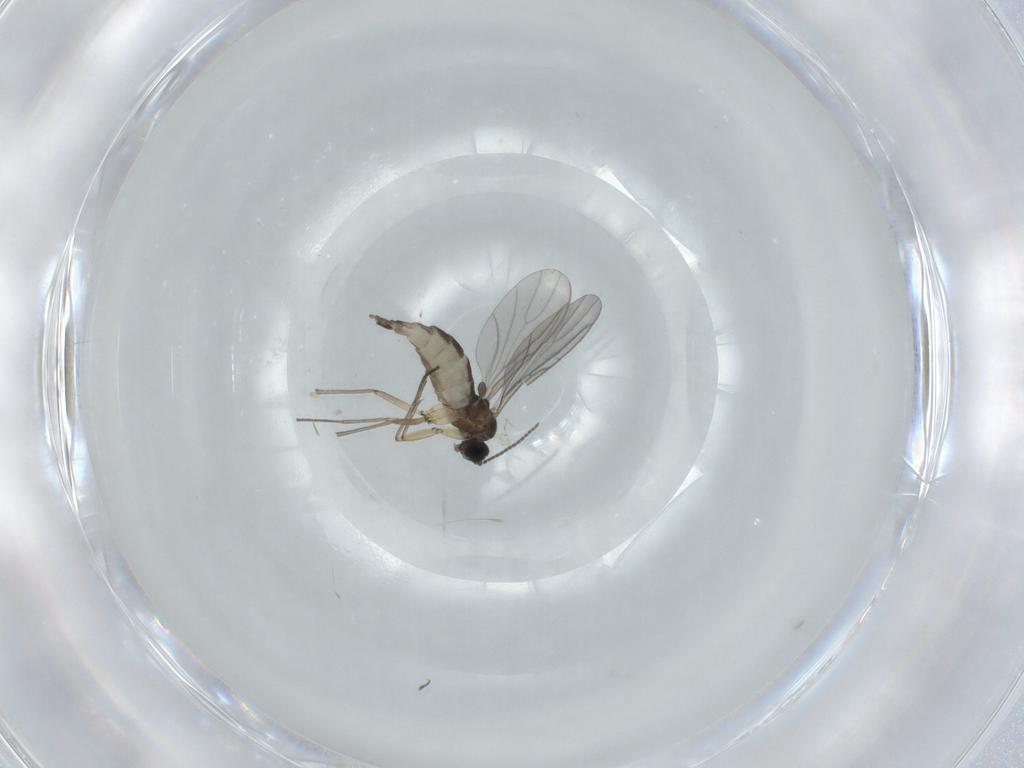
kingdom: Animalia
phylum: Arthropoda
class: Insecta
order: Diptera
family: Sciaridae
